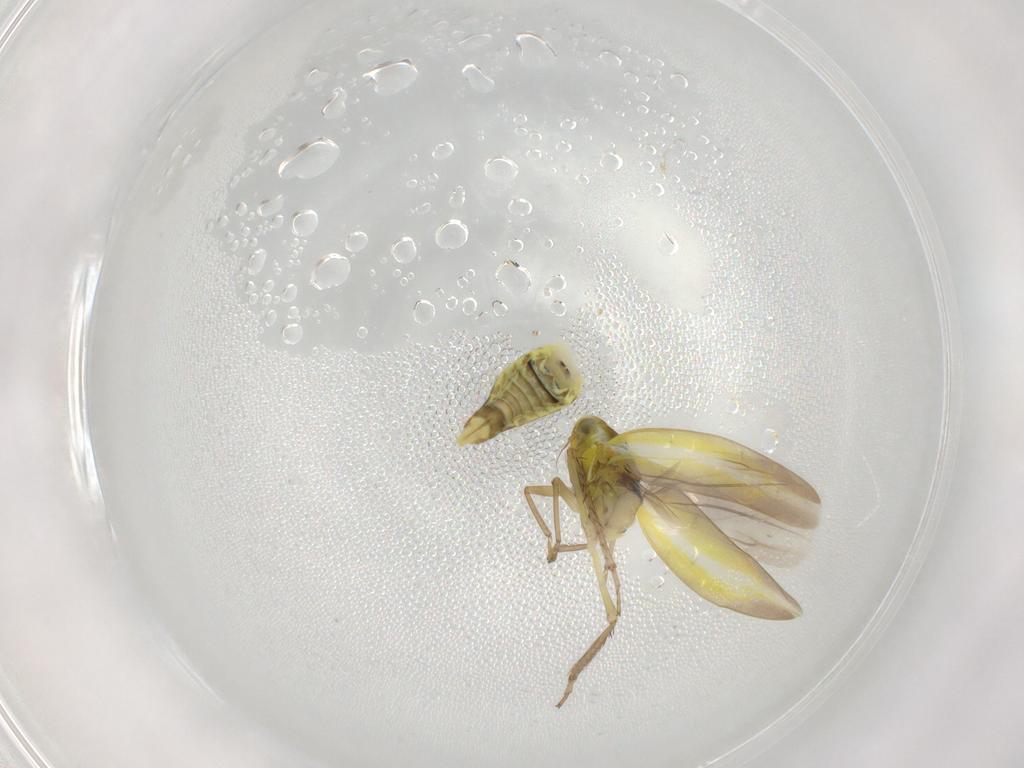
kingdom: Animalia
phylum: Arthropoda
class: Insecta
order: Hemiptera
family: Cicadellidae
